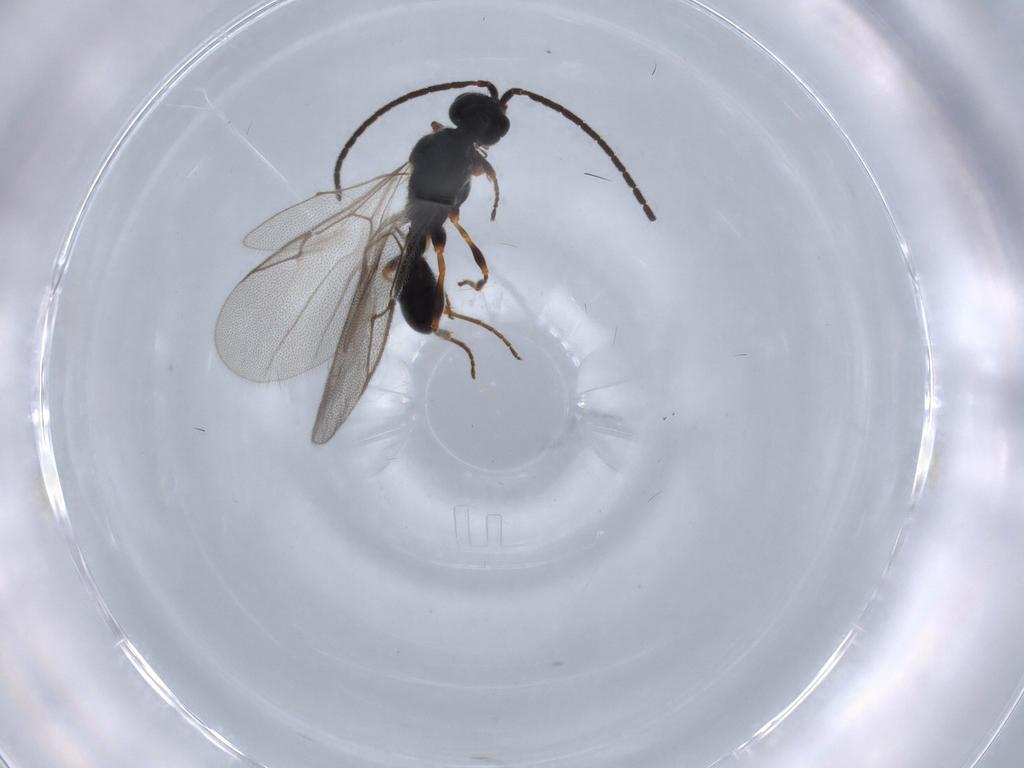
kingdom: Animalia
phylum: Arthropoda
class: Insecta
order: Hymenoptera
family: Diapriidae
